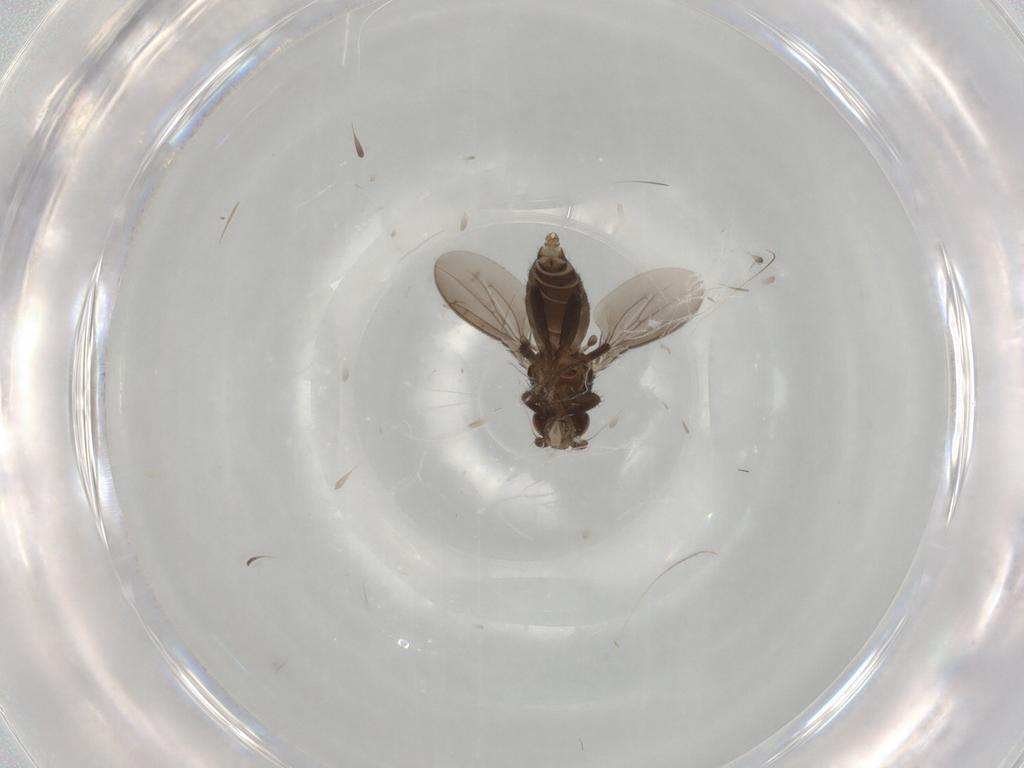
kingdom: Animalia
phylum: Arthropoda
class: Insecta
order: Diptera
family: Sphaeroceridae
